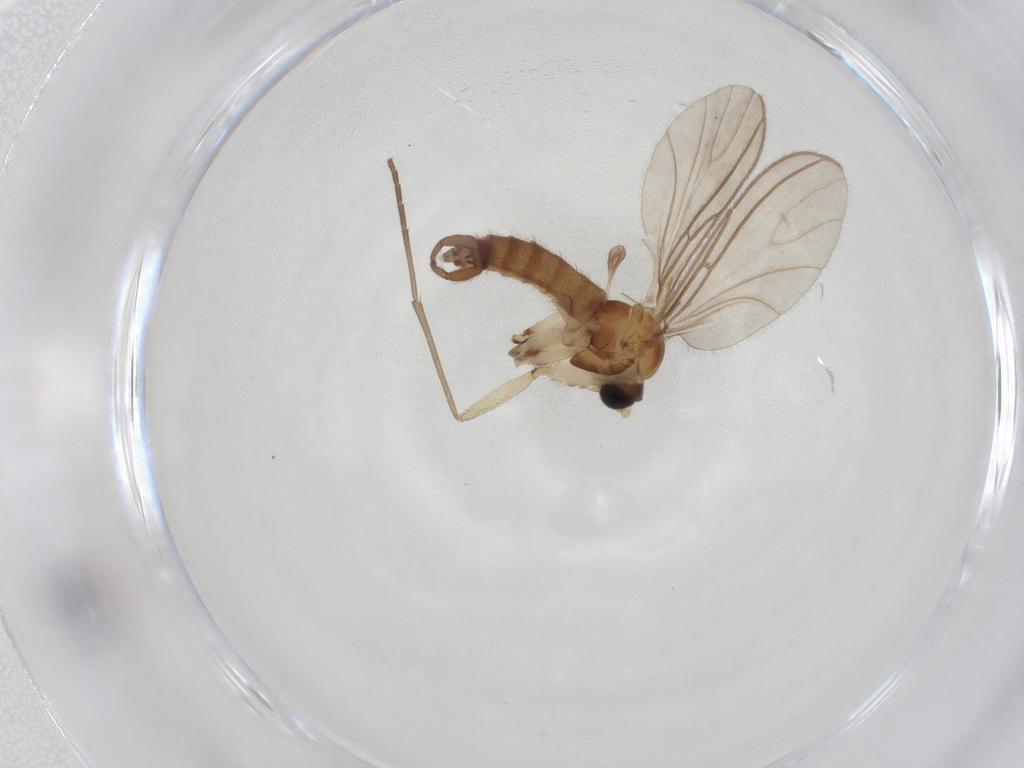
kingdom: Animalia
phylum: Arthropoda
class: Insecta
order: Diptera
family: Sciaridae
